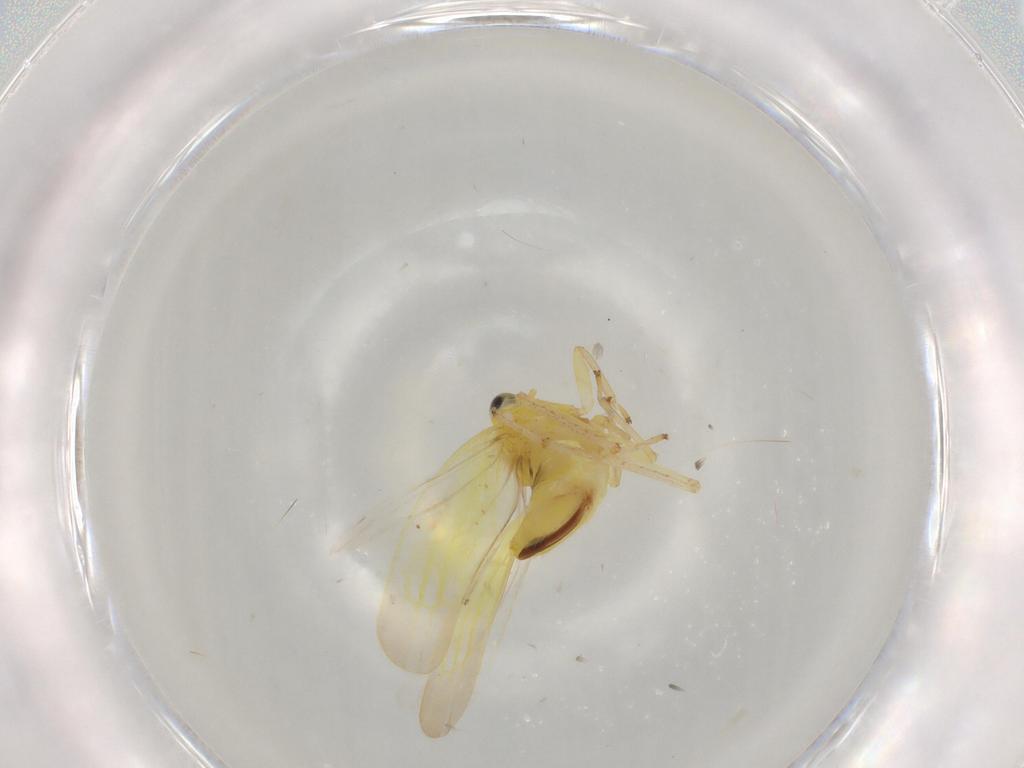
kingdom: Animalia
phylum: Arthropoda
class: Insecta
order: Hemiptera
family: Cicadellidae
